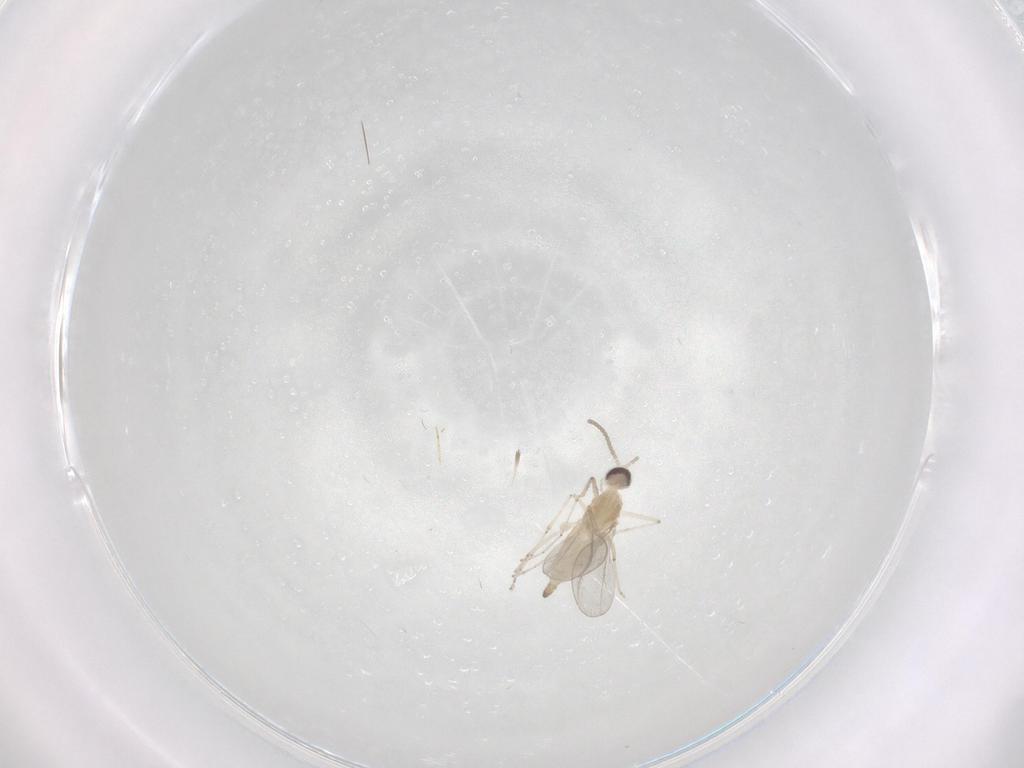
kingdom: Animalia
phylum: Arthropoda
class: Insecta
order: Diptera
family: Cecidomyiidae
